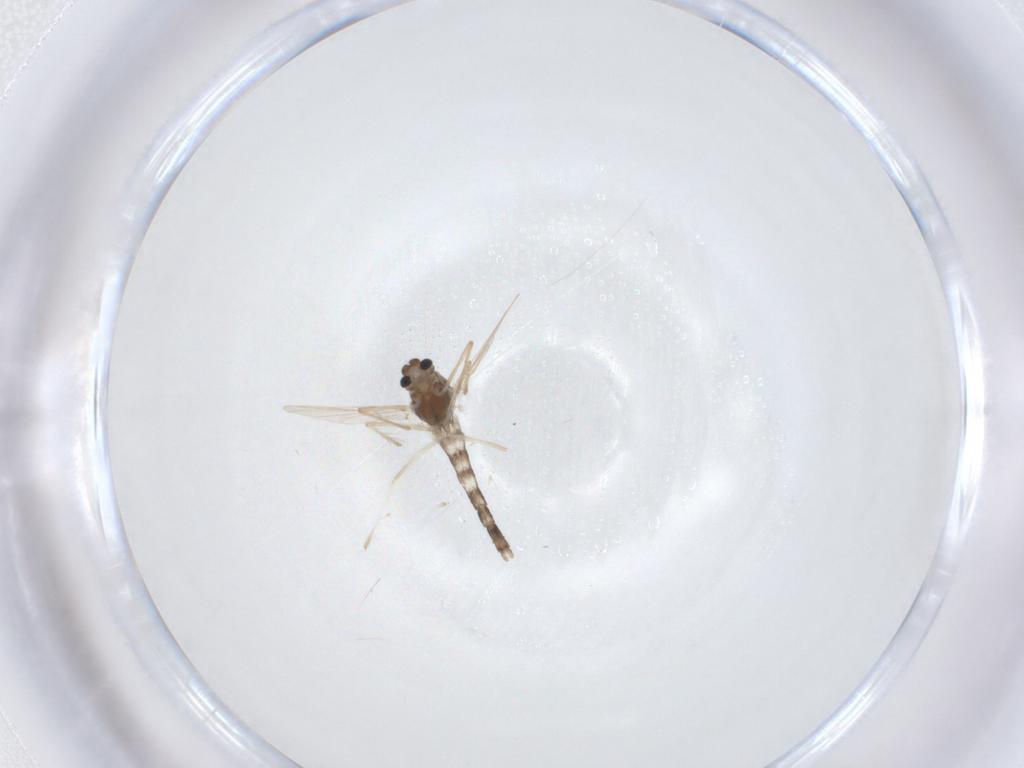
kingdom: Animalia
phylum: Arthropoda
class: Insecta
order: Diptera
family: Chironomidae
